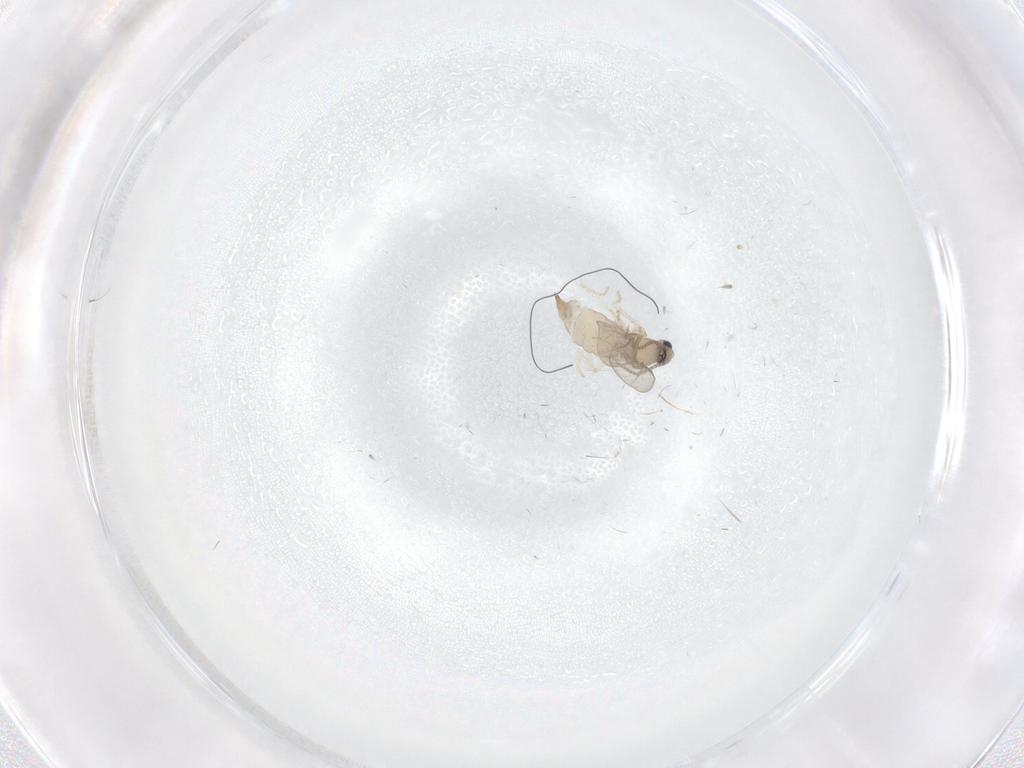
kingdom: Animalia
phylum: Arthropoda
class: Insecta
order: Diptera
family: Cecidomyiidae
